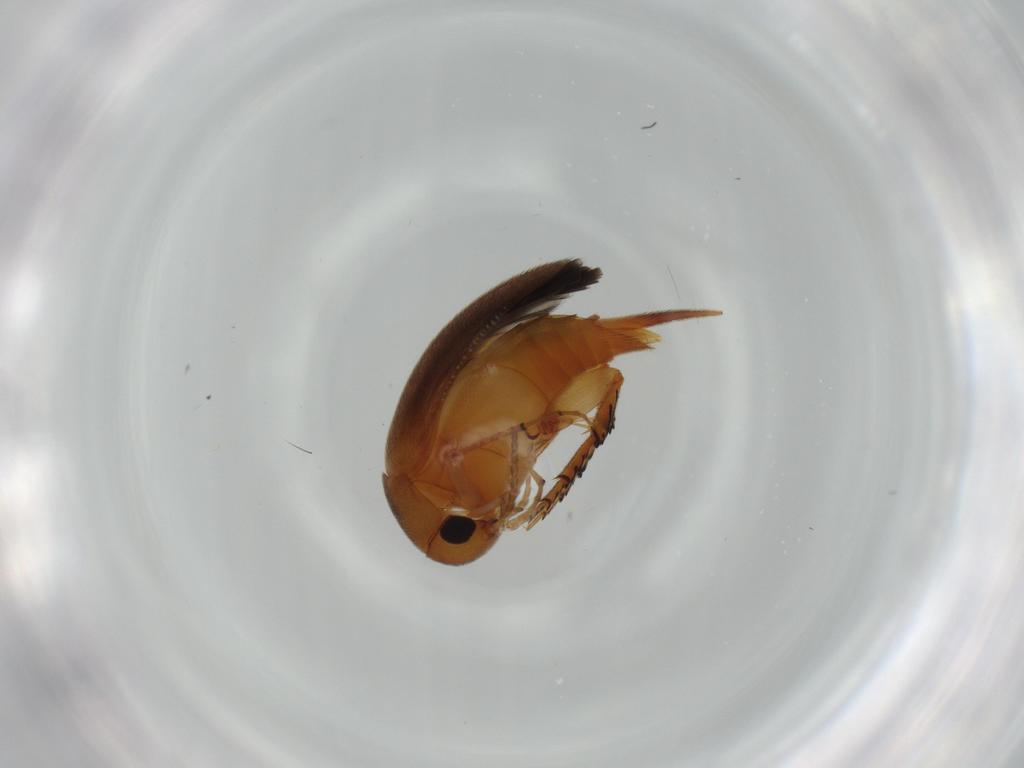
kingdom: Animalia
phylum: Arthropoda
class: Insecta
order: Coleoptera
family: Mordellidae
